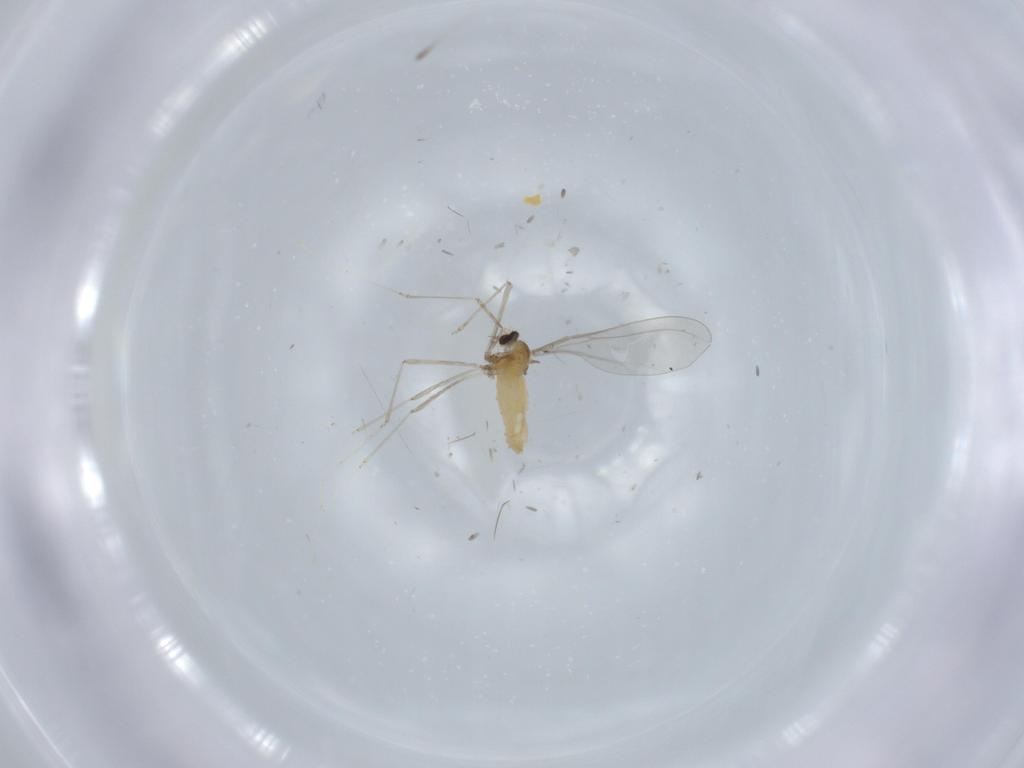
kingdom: Animalia
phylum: Arthropoda
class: Insecta
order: Diptera
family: Cecidomyiidae
